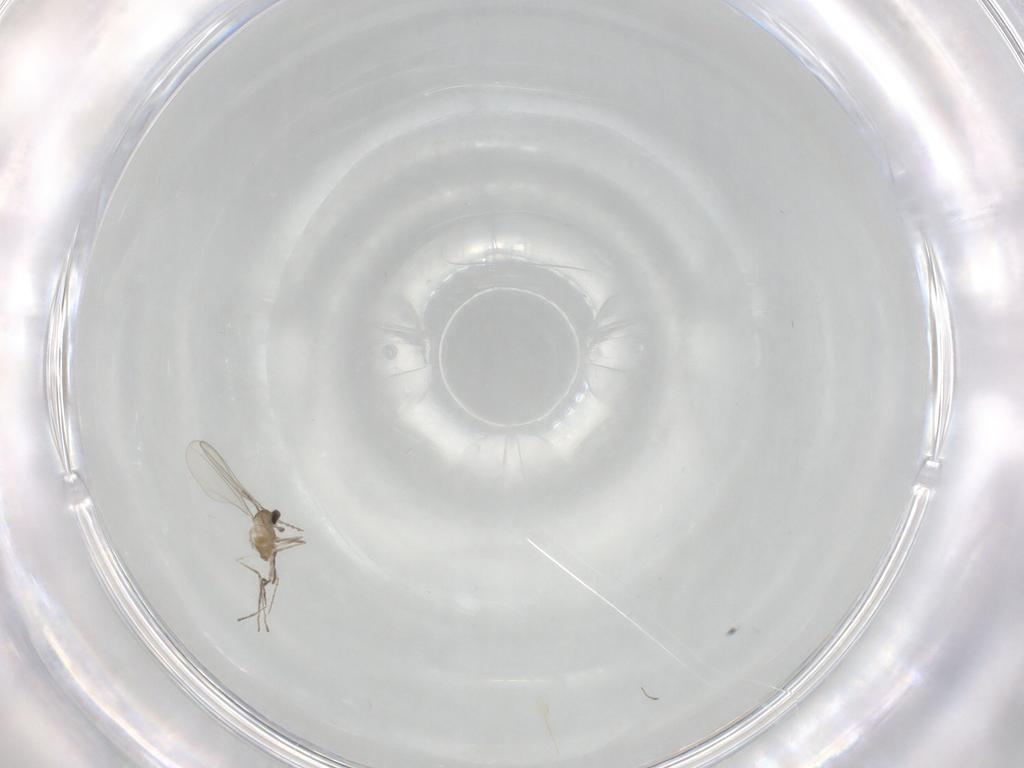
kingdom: Animalia
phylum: Arthropoda
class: Insecta
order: Diptera
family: Cecidomyiidae
